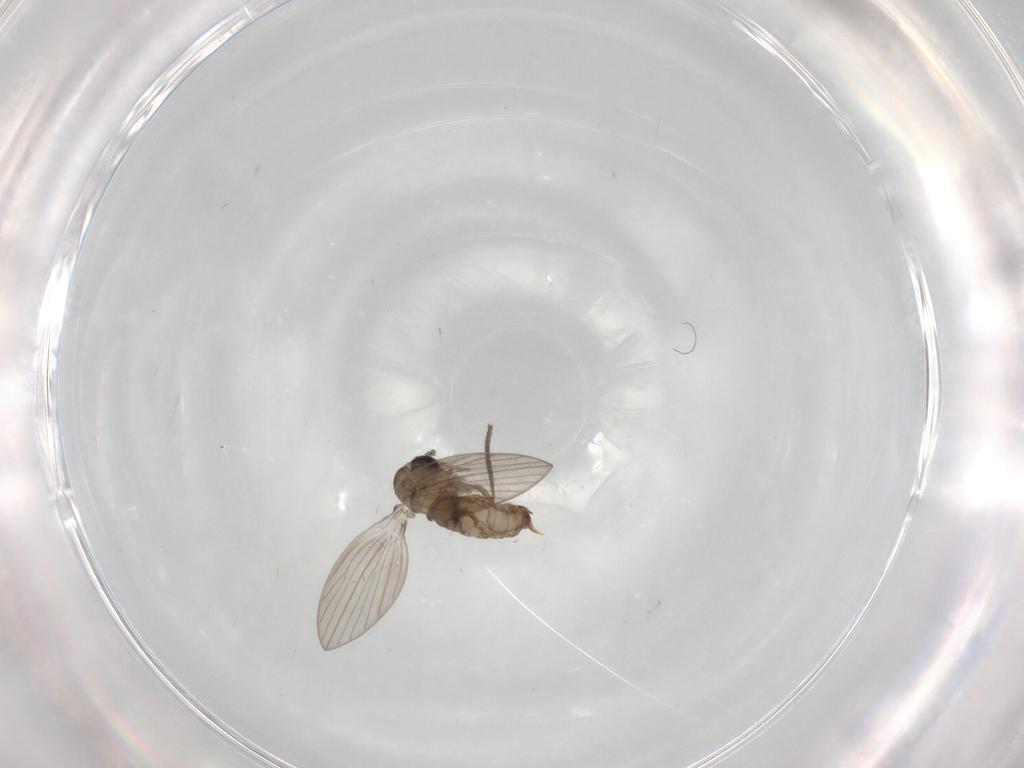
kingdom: Animalia
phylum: Arthropoda
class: Insecta
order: Diptera
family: Psychodidae
